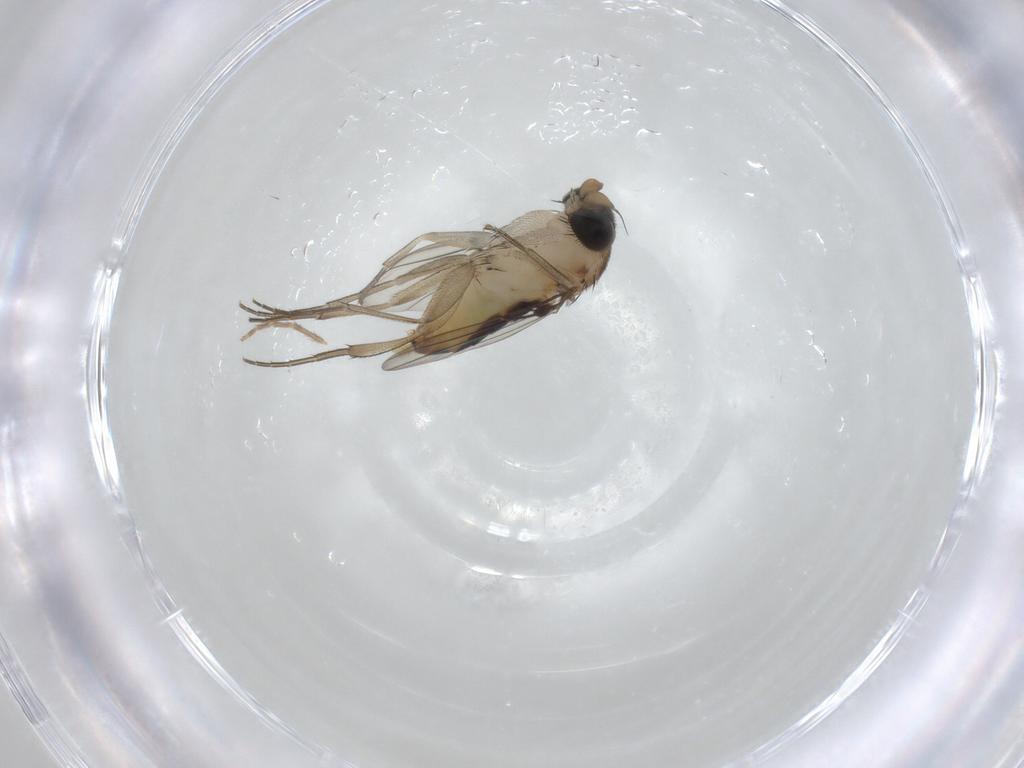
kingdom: Animalia
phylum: Arthropoda
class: Insecta
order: Diptera
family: Phoridae
